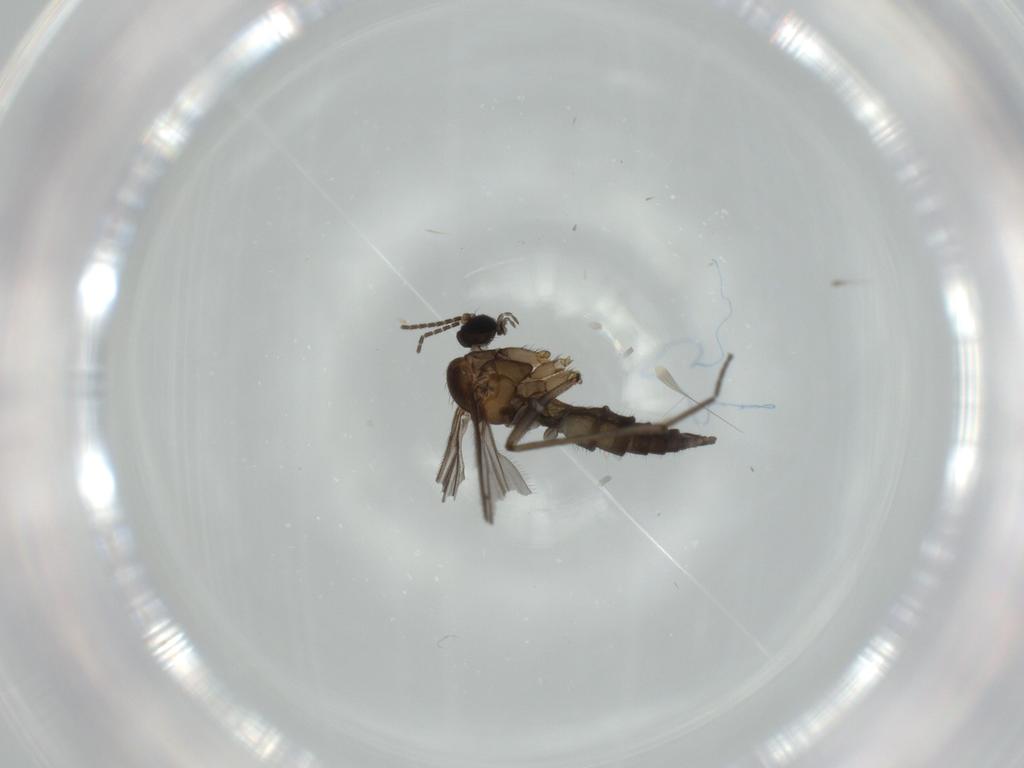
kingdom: Animalia
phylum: Arthropoda
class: Insecta
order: Diptera
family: Sciaridae
